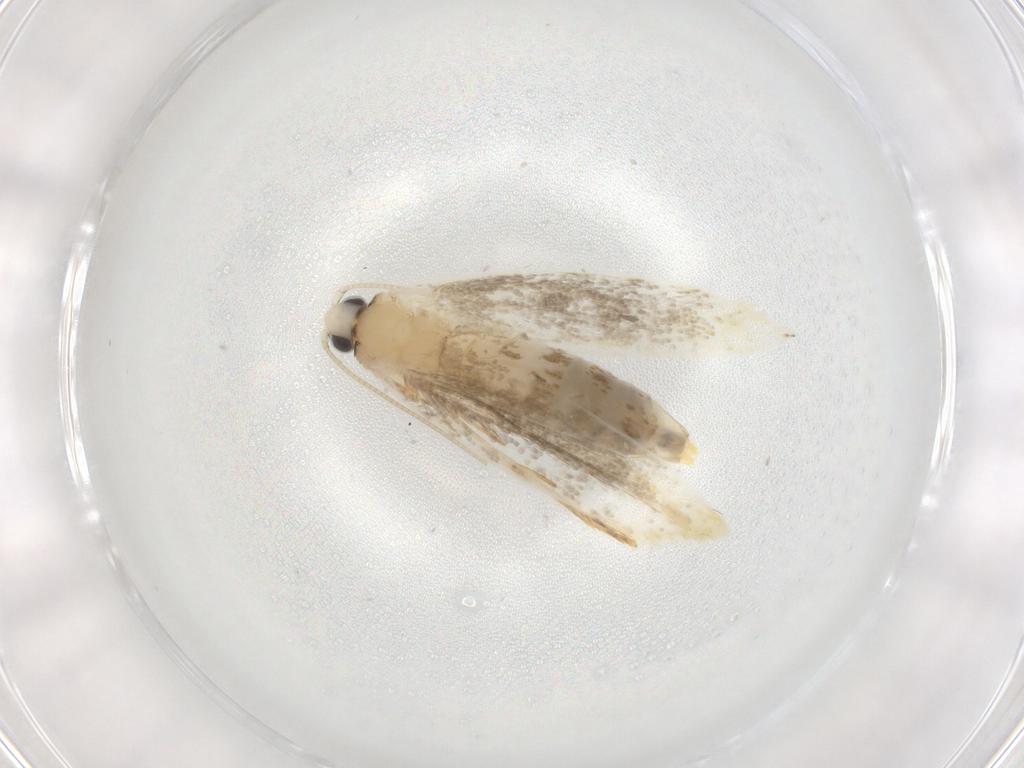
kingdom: Animalia
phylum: Arthropoda
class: Insecta
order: Lepidoptera
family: Tineidae
